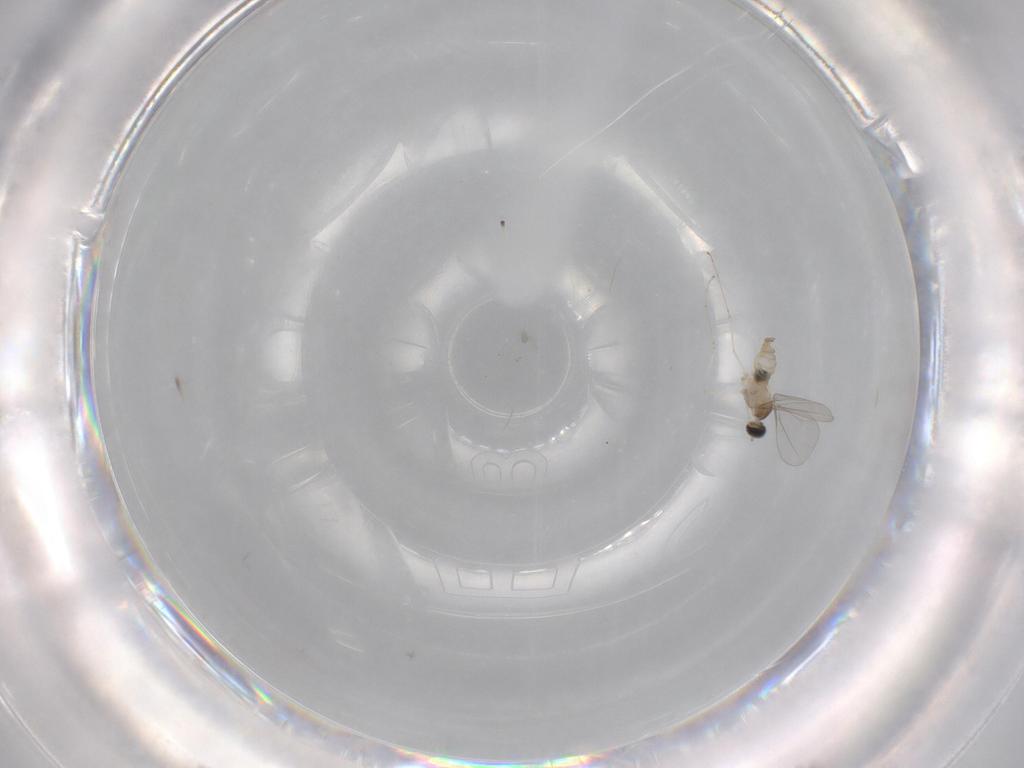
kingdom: Animalia
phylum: Arthropoda
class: Insecta
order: Diptera
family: Cecidomyiidae
